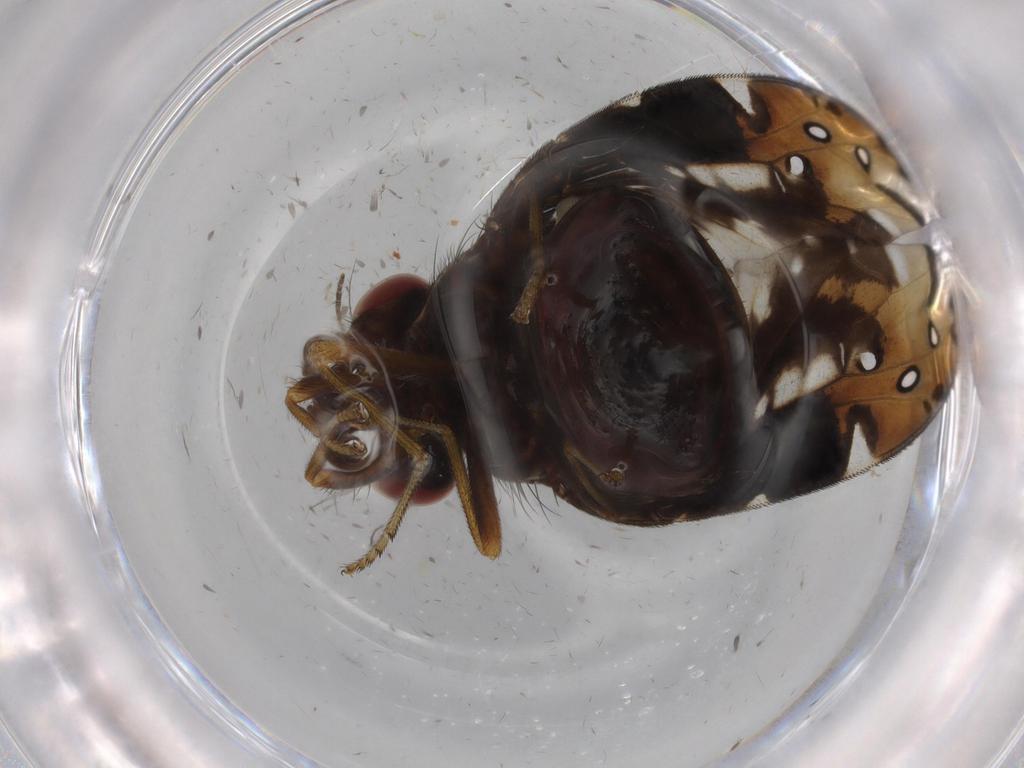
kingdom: Animalia
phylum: Arthropoda
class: Insecta
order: Diptera
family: Ulidiidae
